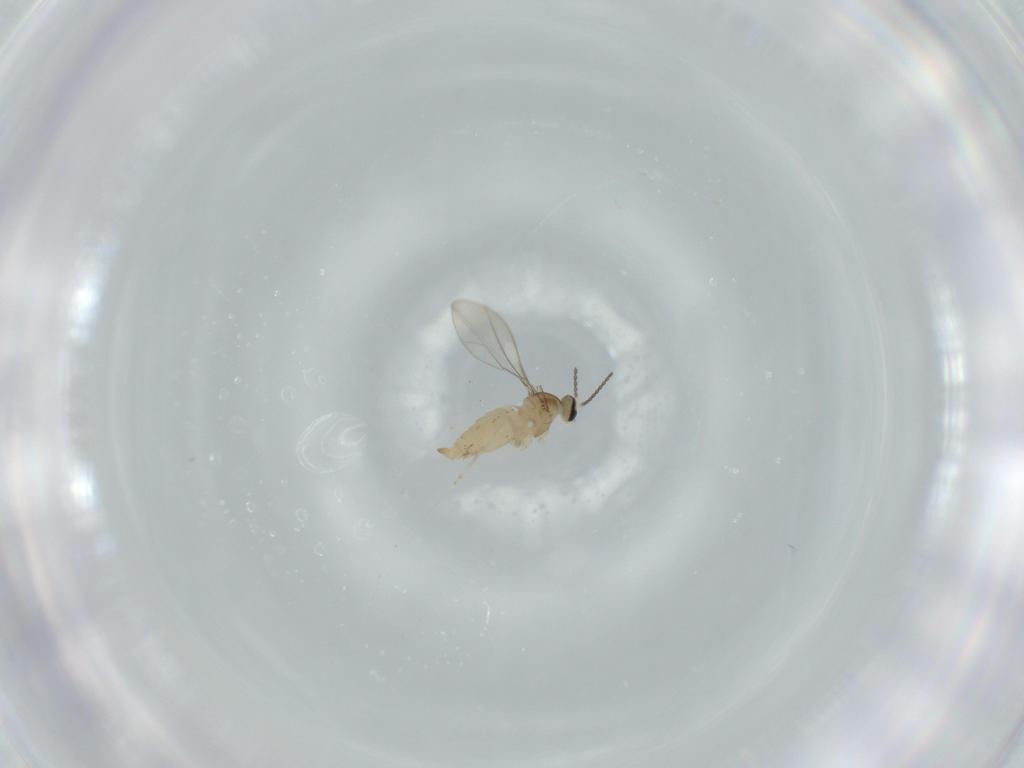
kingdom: Animalia
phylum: Arthropoda
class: Insecta
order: Diptera
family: Cecidomyiidae
